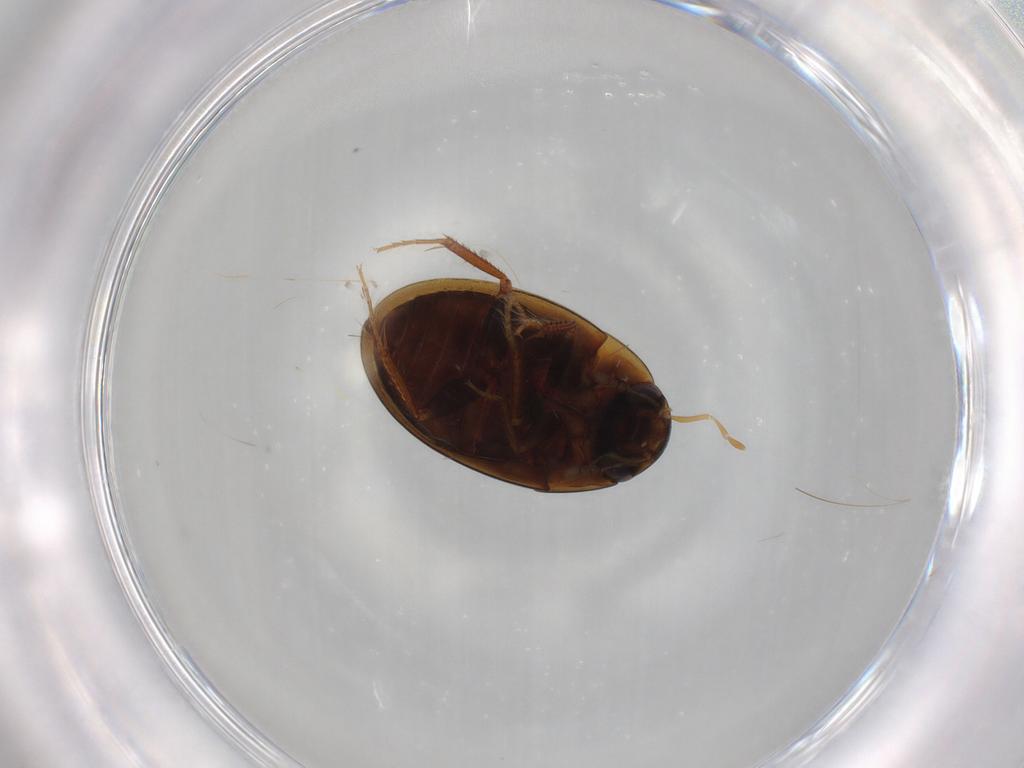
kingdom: Animalia
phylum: Arthropoda
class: Insecta
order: Coleoptera
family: Hydrophilidae
